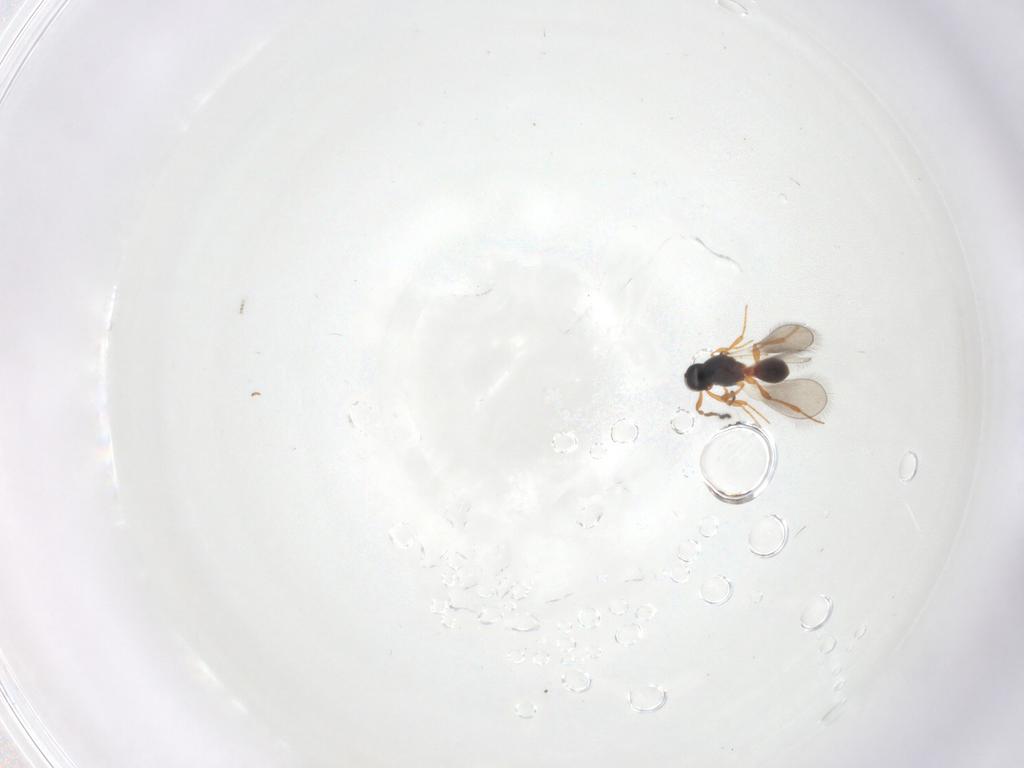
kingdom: Animalia
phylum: Arthropoda
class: Insecta
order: Hymenoptera
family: Platygastridae
